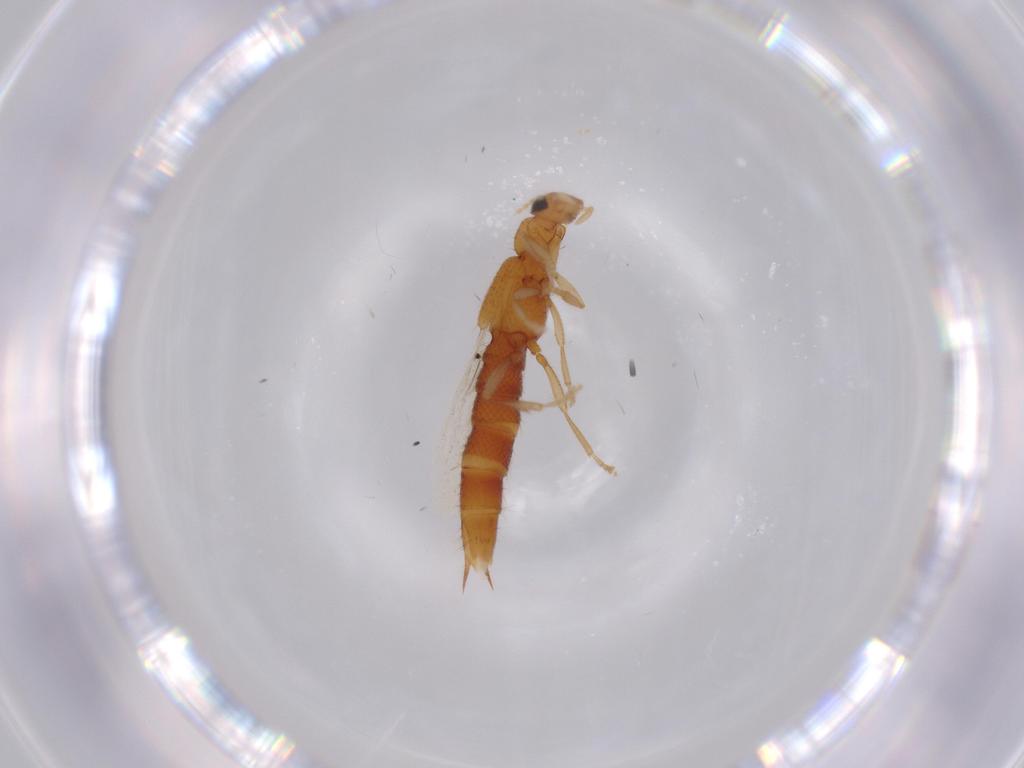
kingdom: Animalia
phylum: Arthropoda
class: Insecta
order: Coleoptera
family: Staphylinidae
